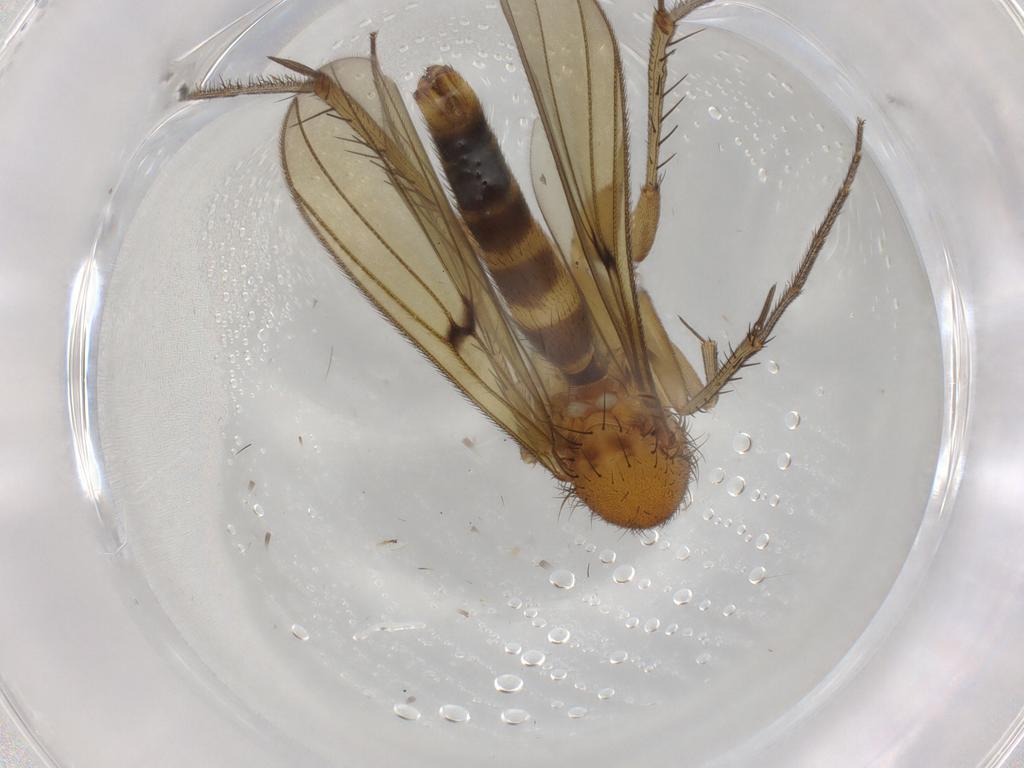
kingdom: Animalia
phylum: Arthropoda
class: Insecta
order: Diptera
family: Mycetophilidae
